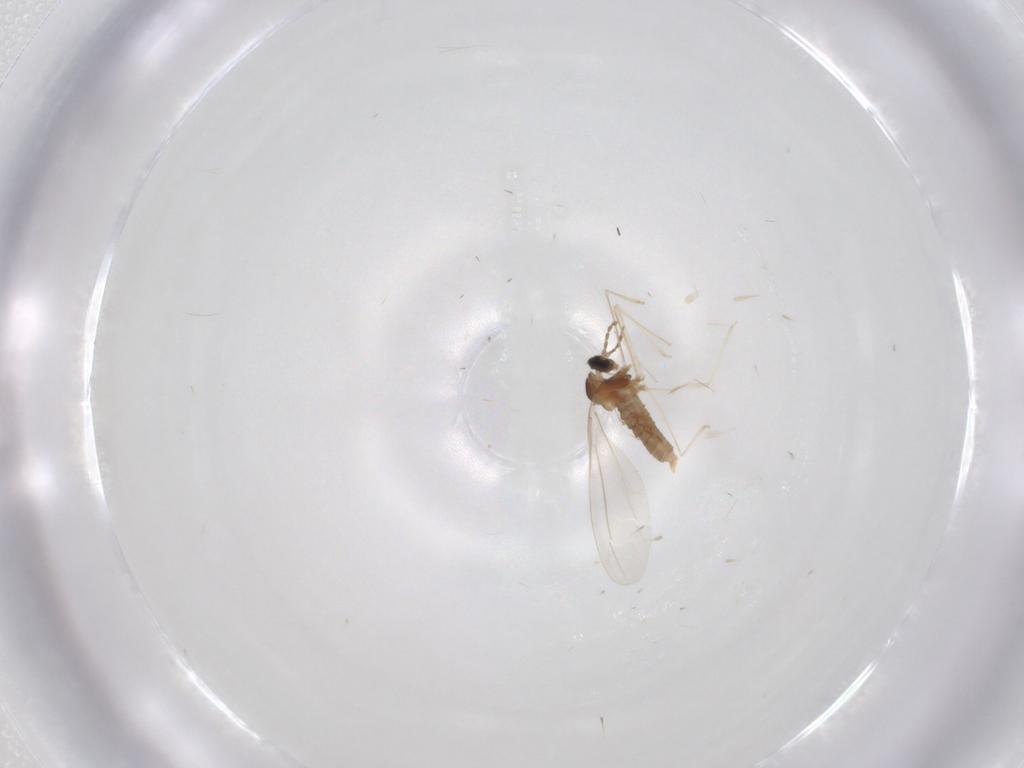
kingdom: Animalia
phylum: Arthropoda
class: Insecta
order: Diptera
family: Cecidomyiidae
